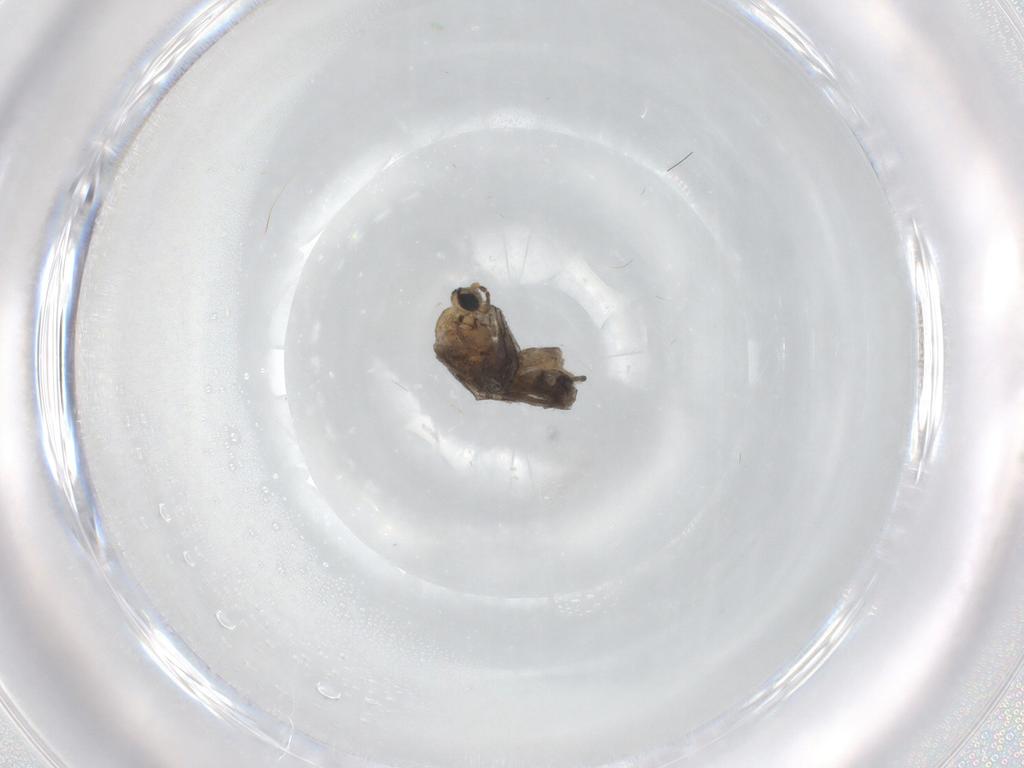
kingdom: Animalia
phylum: Arthropoda
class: Insecta
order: Diptera
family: Sciaridae
